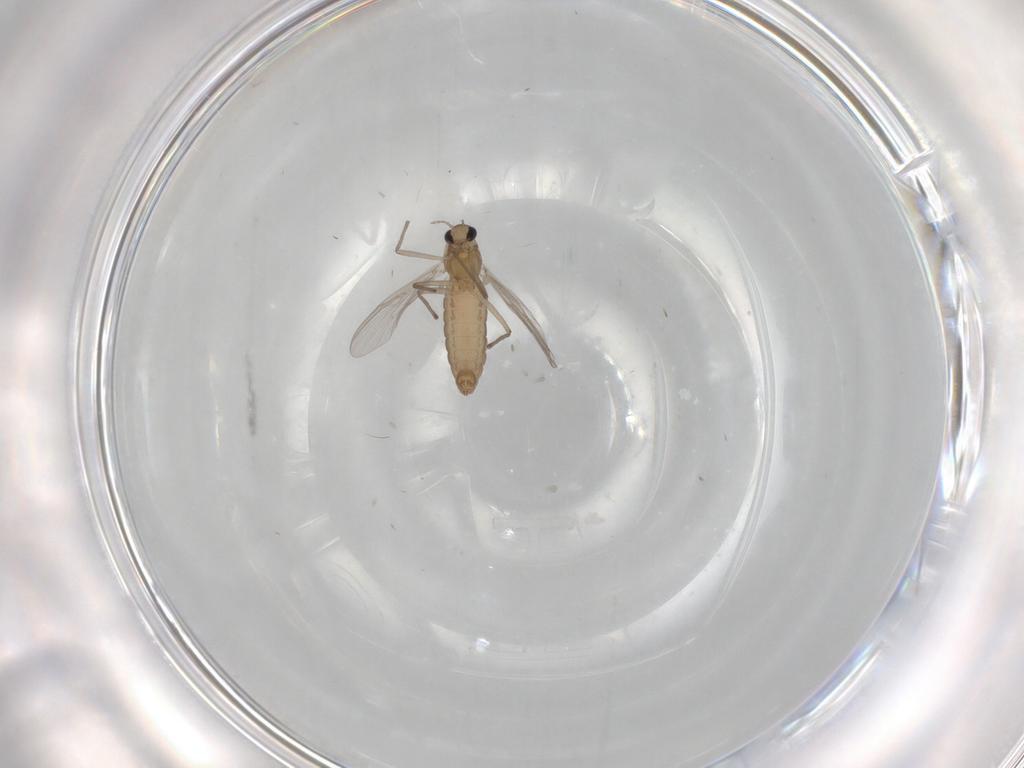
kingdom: Animalia
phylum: Arthropoda
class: Insecta
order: Diptera
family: Chironomidae
